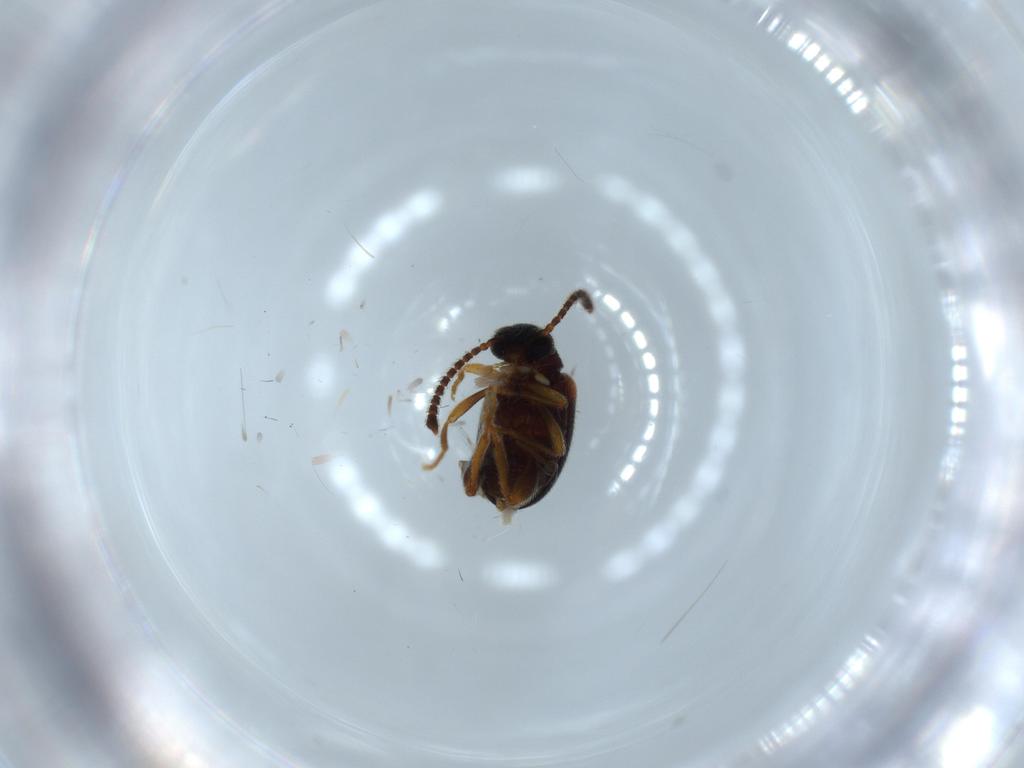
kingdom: Animalia
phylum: Arthropoda
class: Insecta
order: Coleoptera
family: Aderidae
